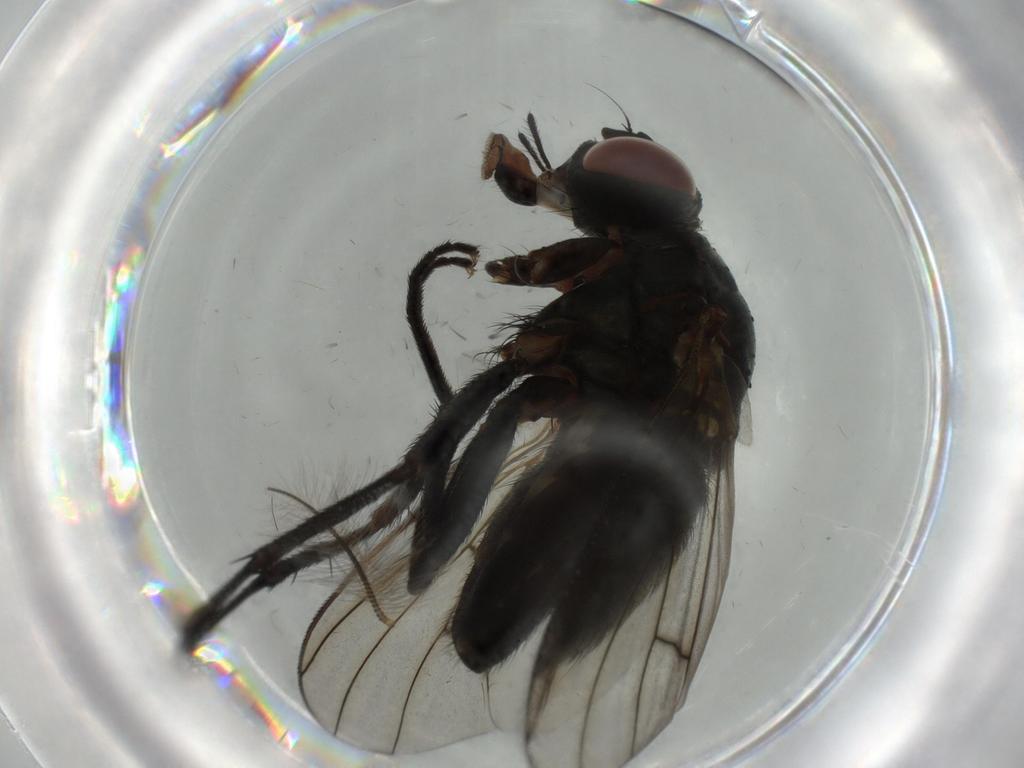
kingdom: Animalia
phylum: Arthropoda
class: Insecta
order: Diptera
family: Muscidae
